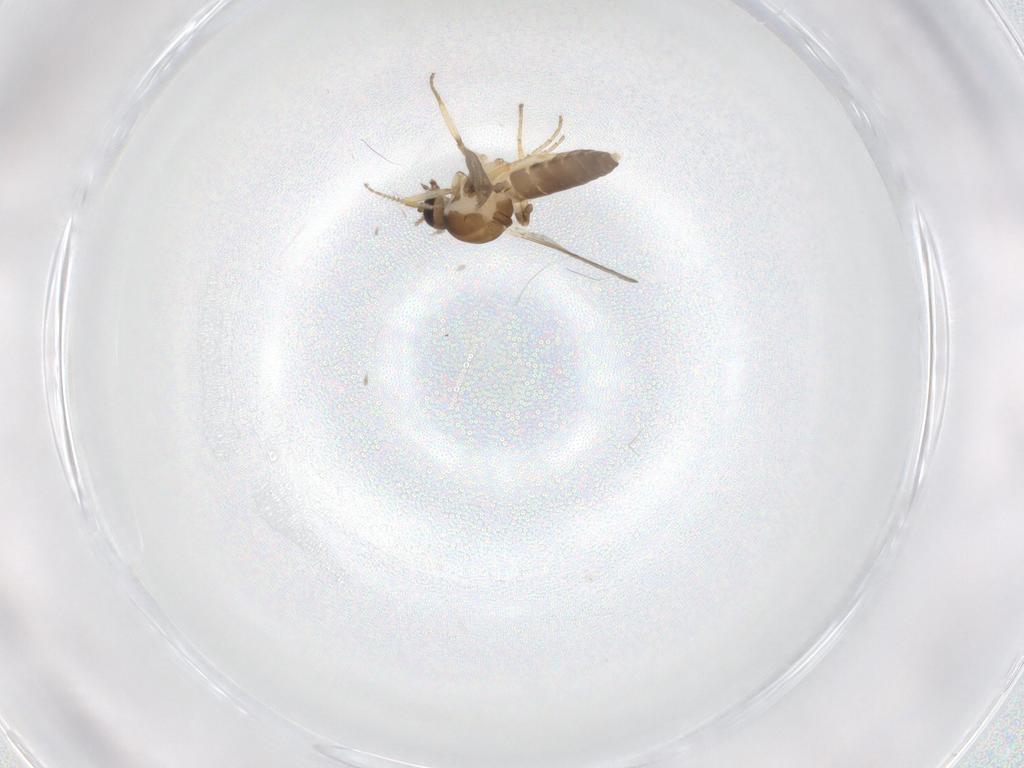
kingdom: Animalia
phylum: Arthropoda
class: Insecta
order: Diptera
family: Ceratopogonidae
